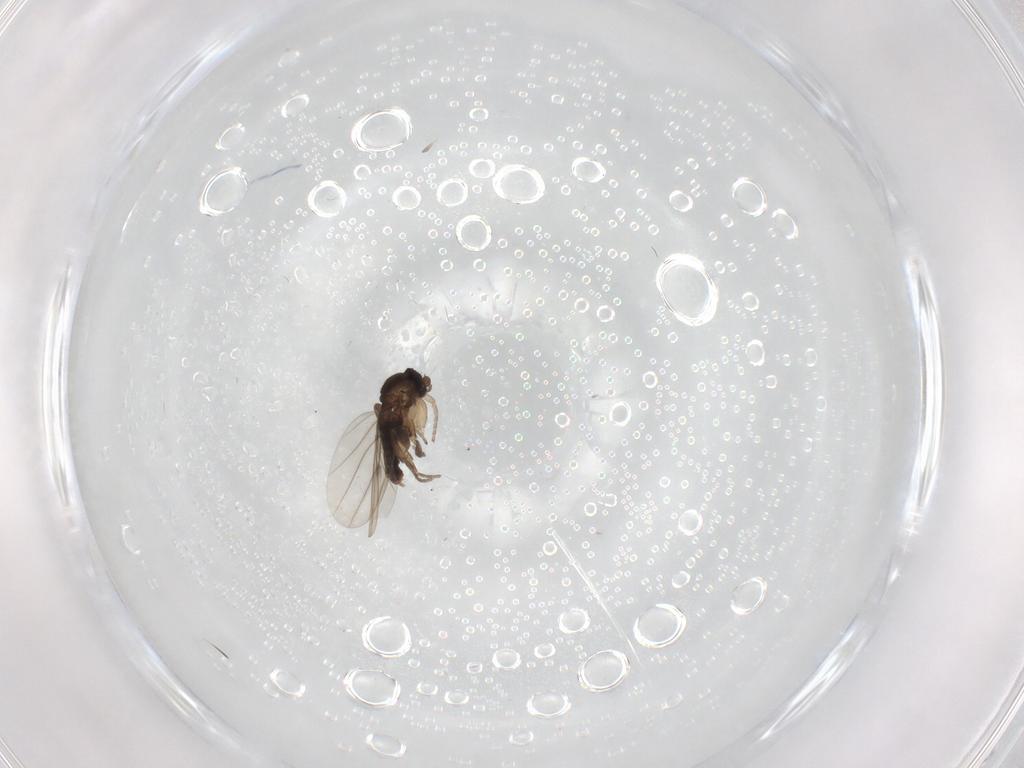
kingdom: Animalia
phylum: Arthropoda
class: Insecta
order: Diptera
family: Phoridae
